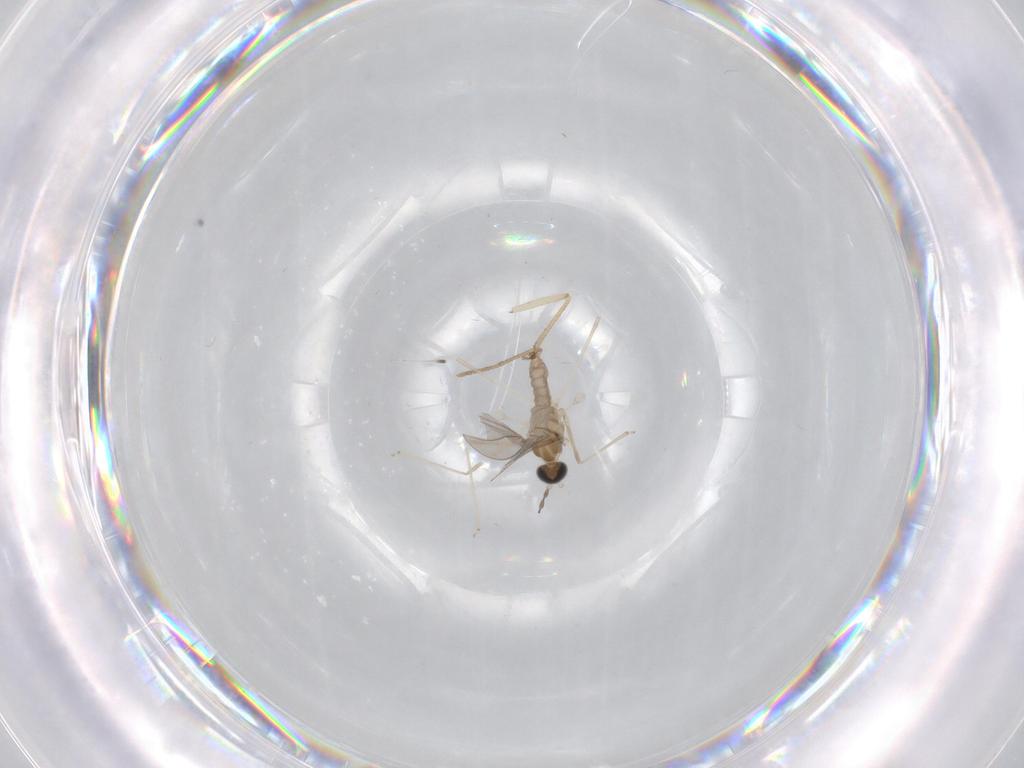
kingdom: Animalia
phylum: Arthropoda
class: Insecta
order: Diptera
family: Cecidomyiidae
